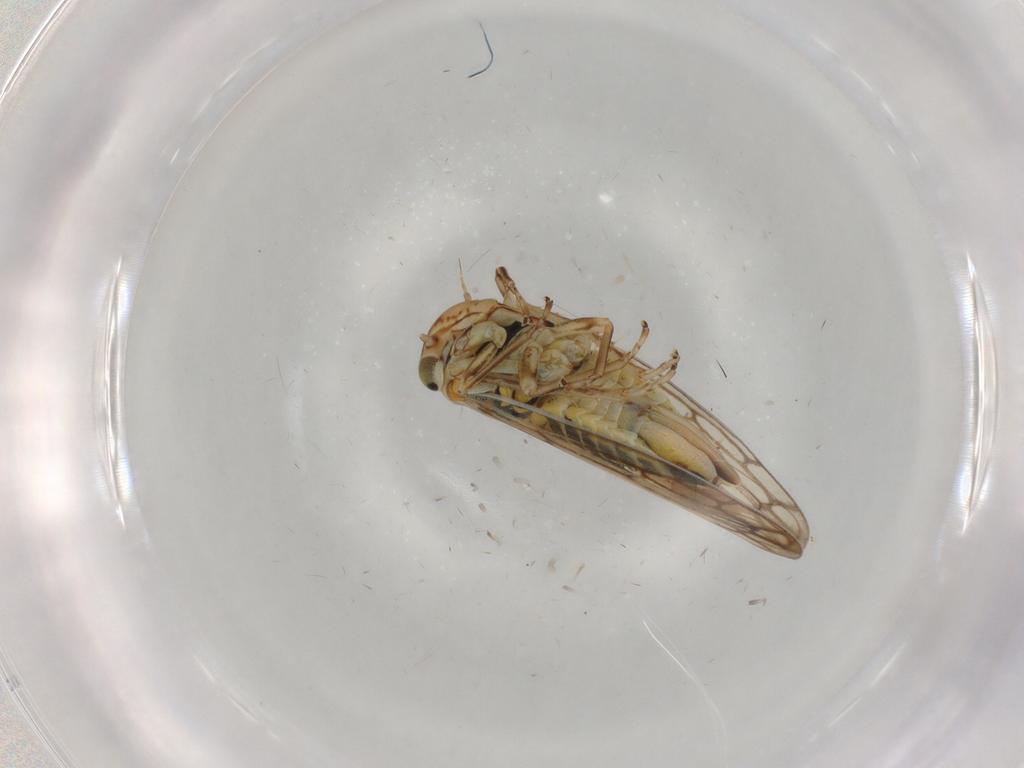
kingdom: Animalia
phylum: Arthropoda
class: Insecta
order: Hemiptera
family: Cicadellidae
